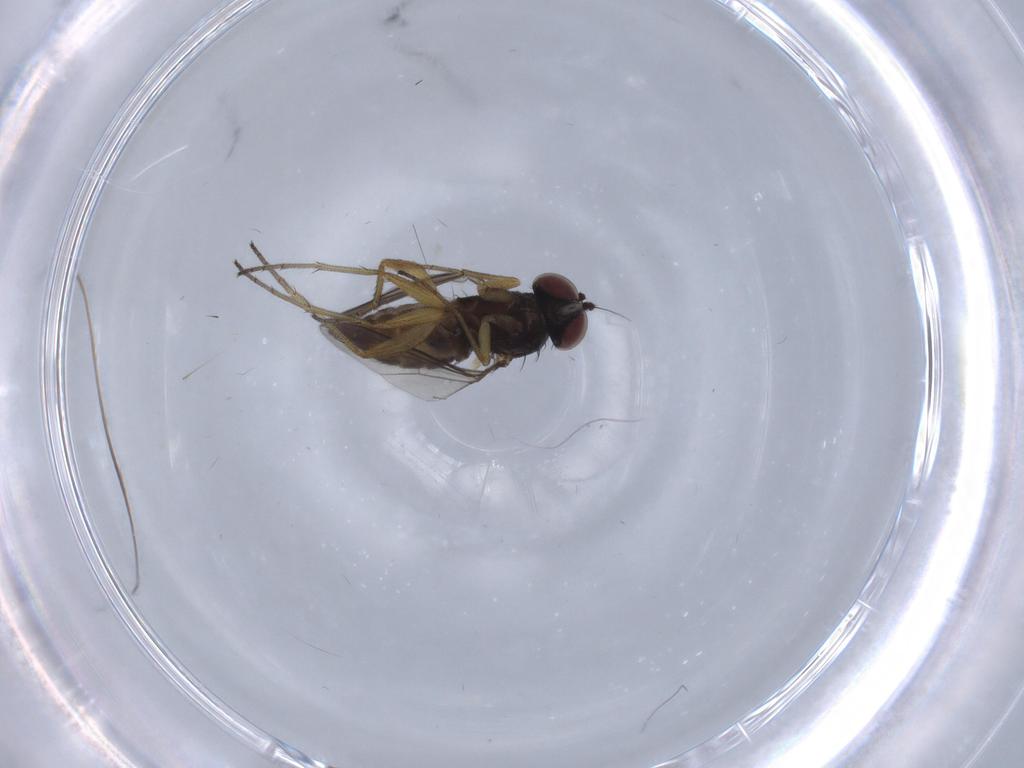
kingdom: Animalia
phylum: Arthropoda
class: Insecta
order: Diptera
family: Dolichopodidae
